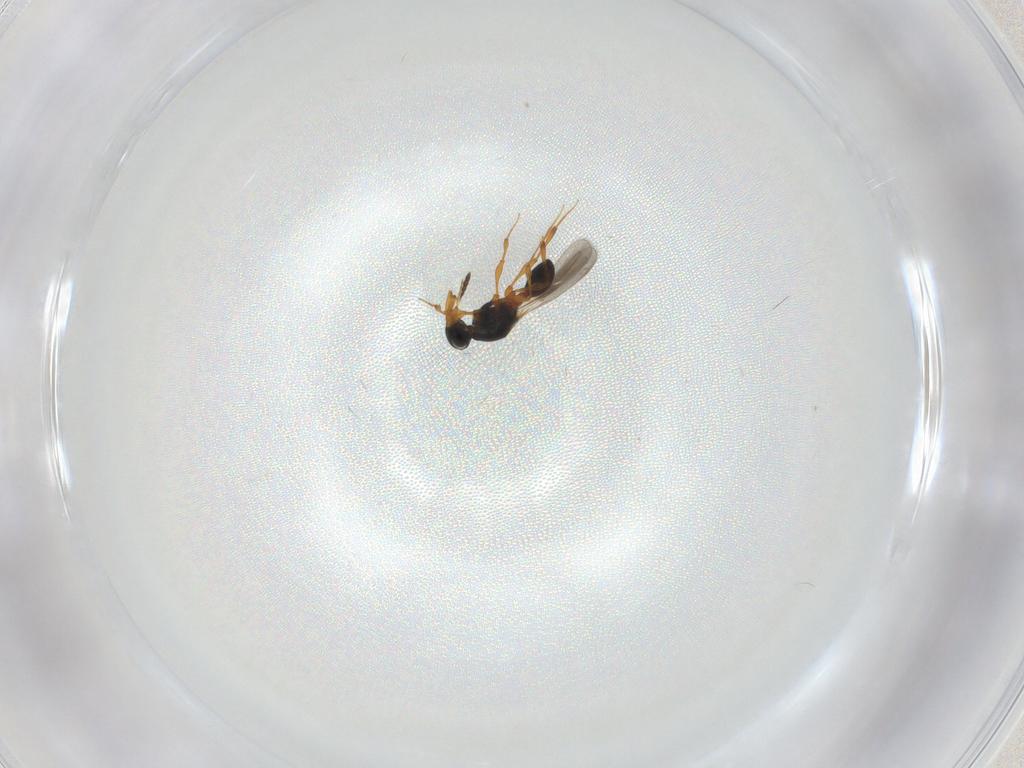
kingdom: Animalia
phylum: Arthropoda
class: Insecta
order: Hymenoptera
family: Platygastridae
